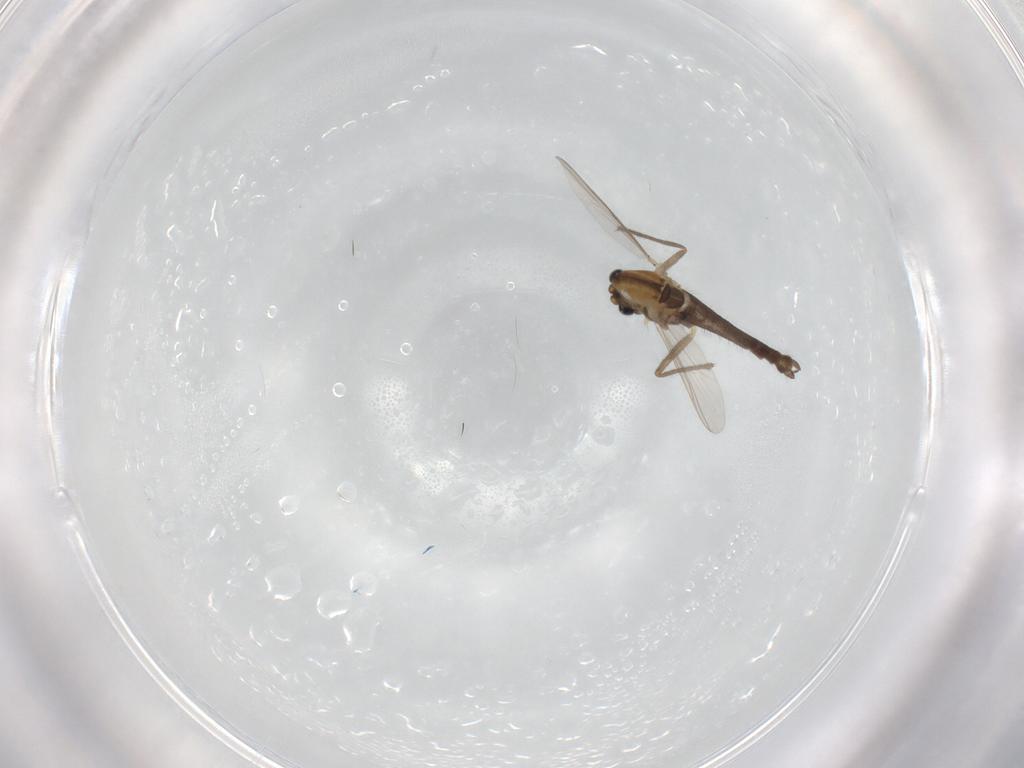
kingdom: Animalia
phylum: Arthropoda
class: Insecta
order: Diptera
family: Chironomidae
